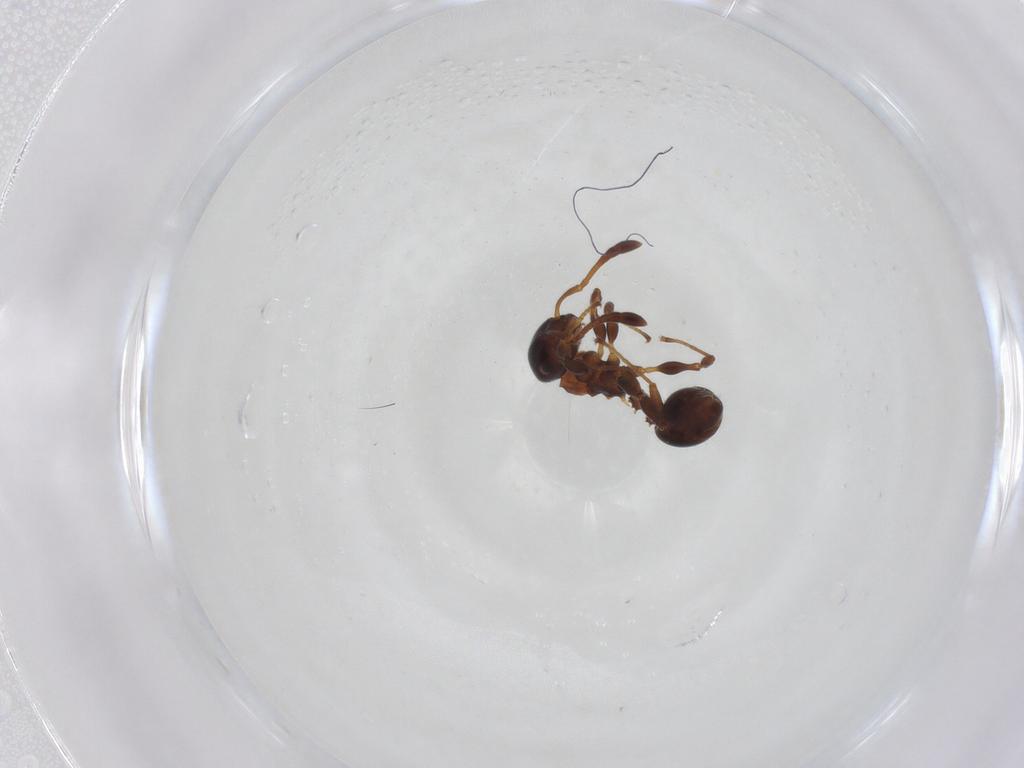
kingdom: Animalia
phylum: Arthropoda
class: Insecta
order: Hymenoptera
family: Formicidae
